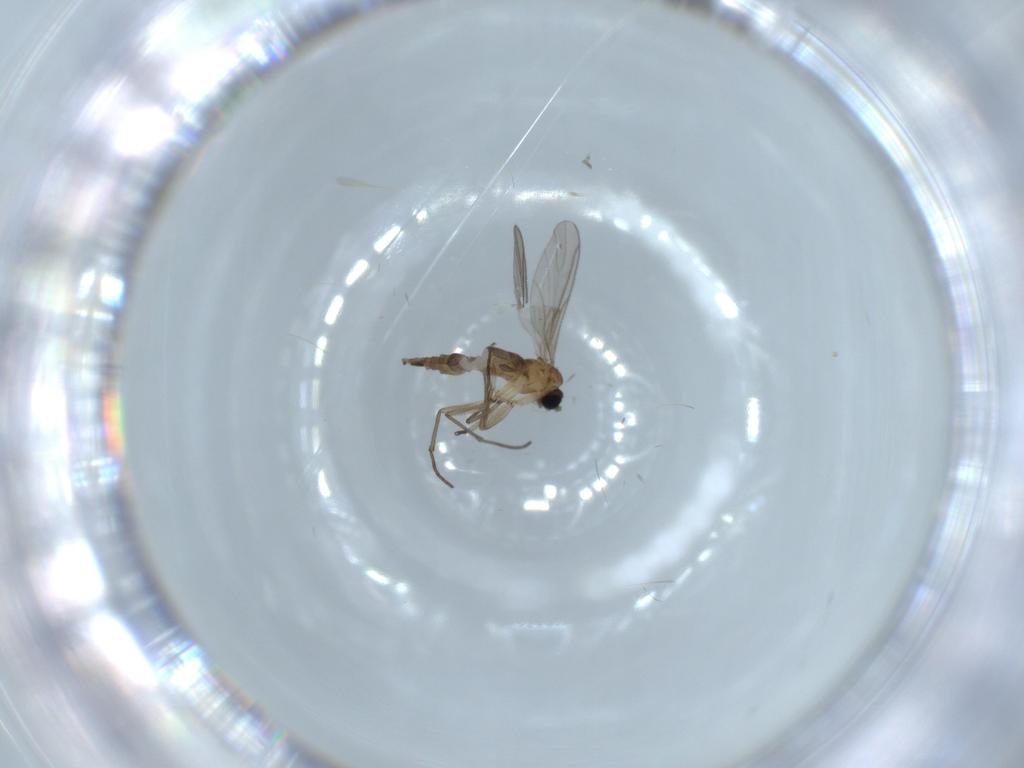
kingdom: Animalia
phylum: Arthropoda
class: Insecta
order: Diptera
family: Sciaridae
